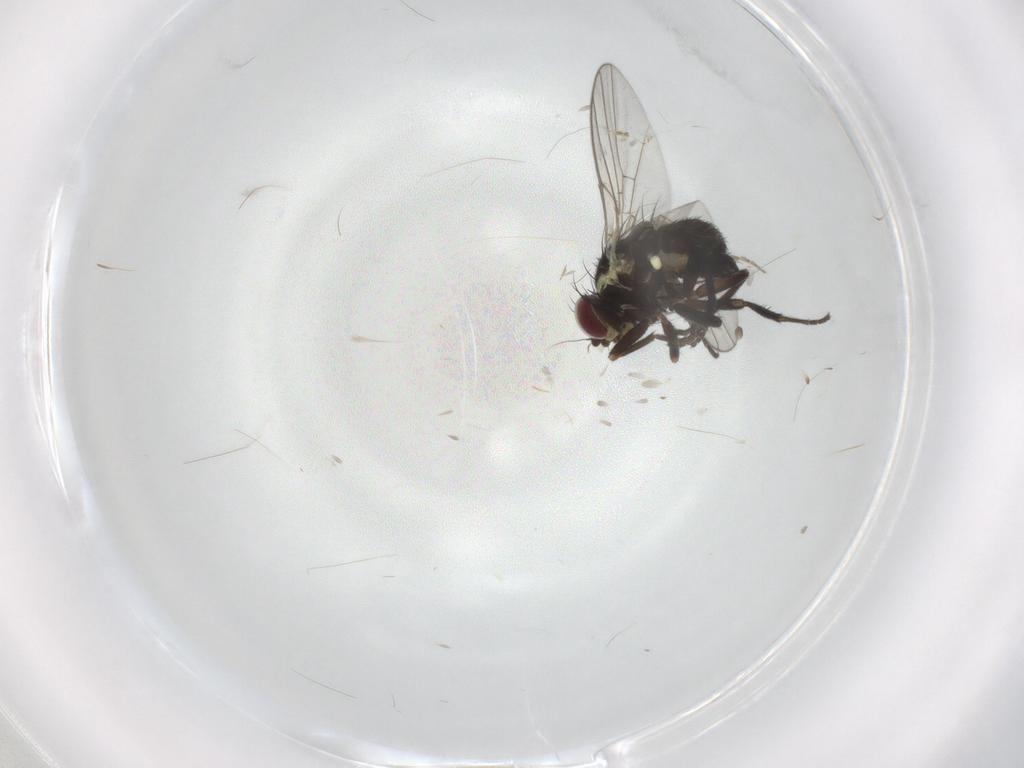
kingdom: Animalia
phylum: Arthropoda
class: Insecta
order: Diptera
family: Agromyzidae
